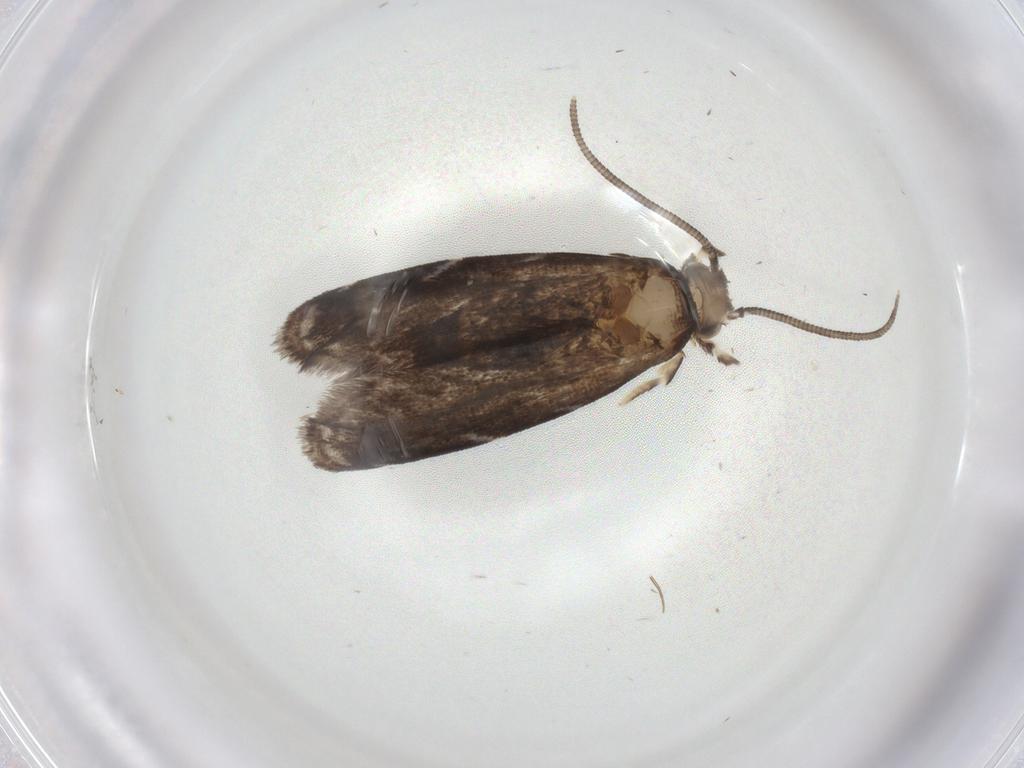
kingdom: Animalia
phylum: Arthropoda
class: Insecta
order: Lepidoptera
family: Dryadaulidae
